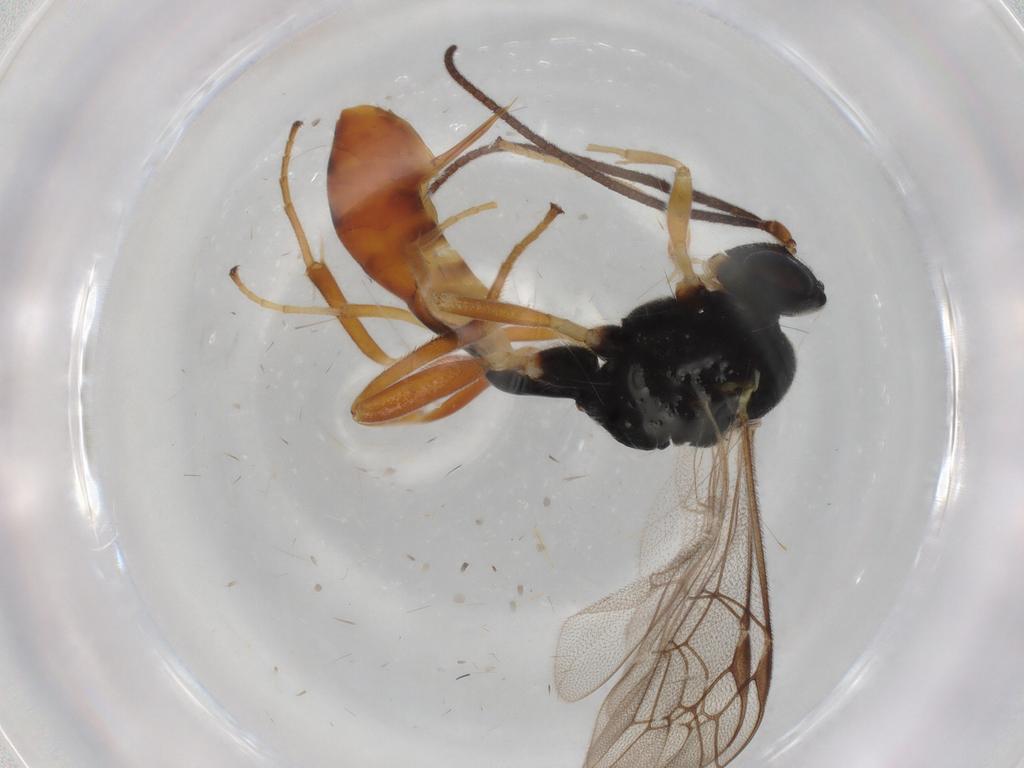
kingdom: Animalia
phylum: Arthropoda
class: Insecta
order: Hymenoptera
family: Ichneumonidae
